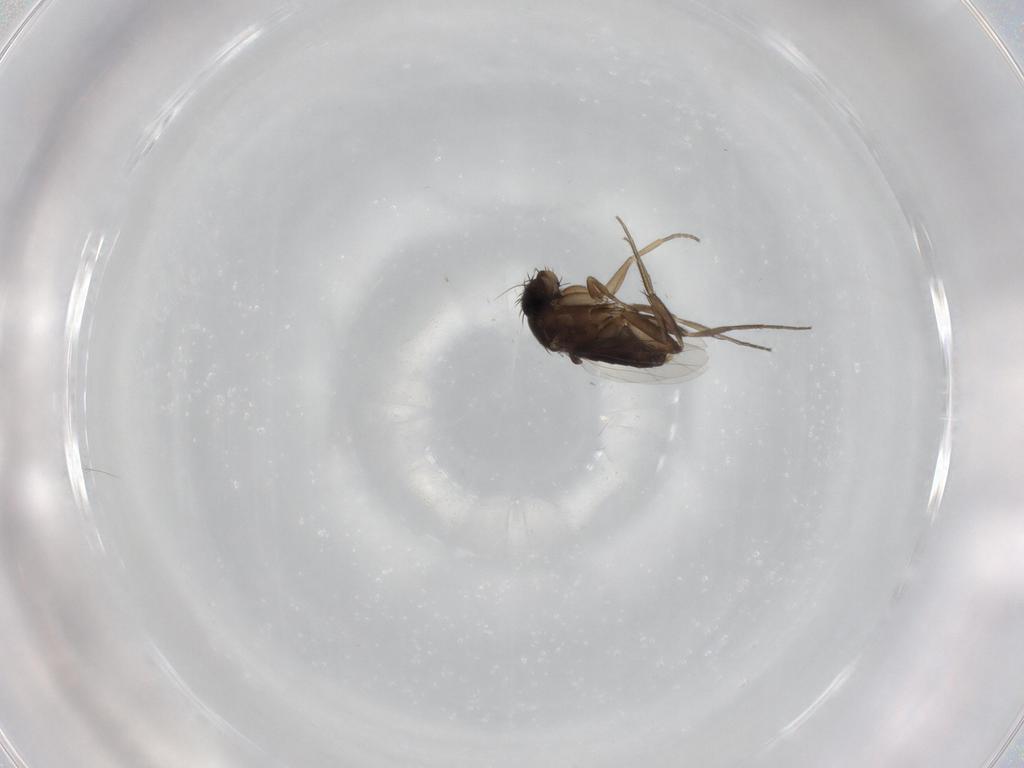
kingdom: Animalia
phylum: Arthropoda
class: Insecta
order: Diptera
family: Phoridae
